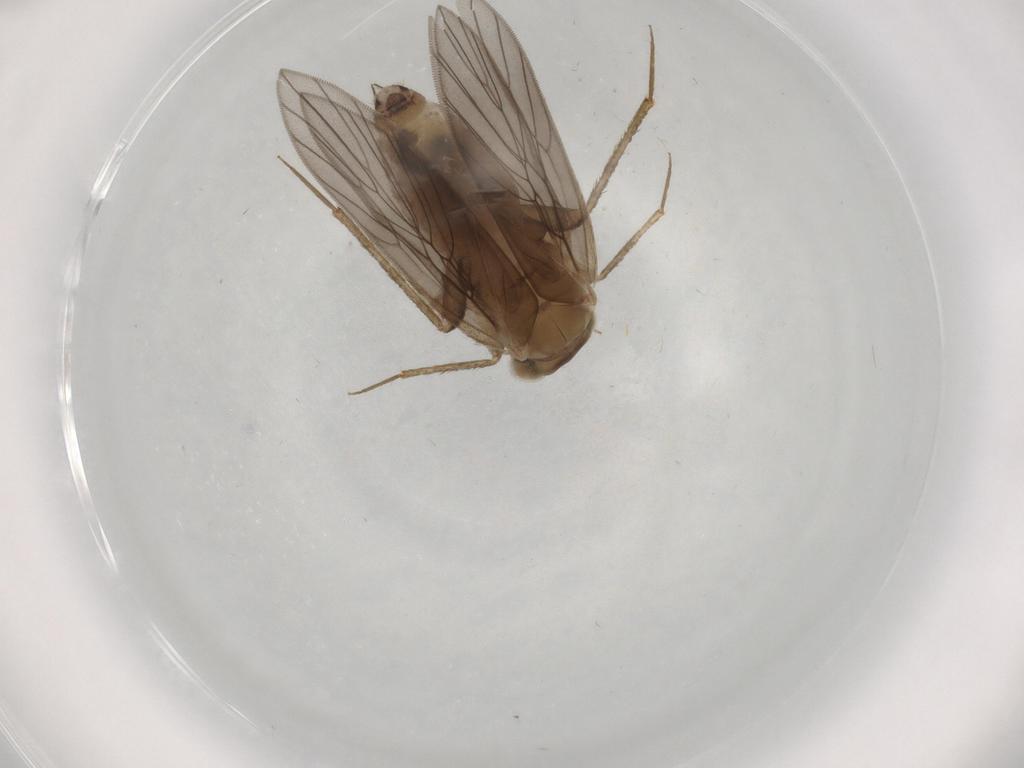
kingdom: Animalia
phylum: Arthropoda
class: Insecta
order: Psocodea
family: Lepidopsocidae
